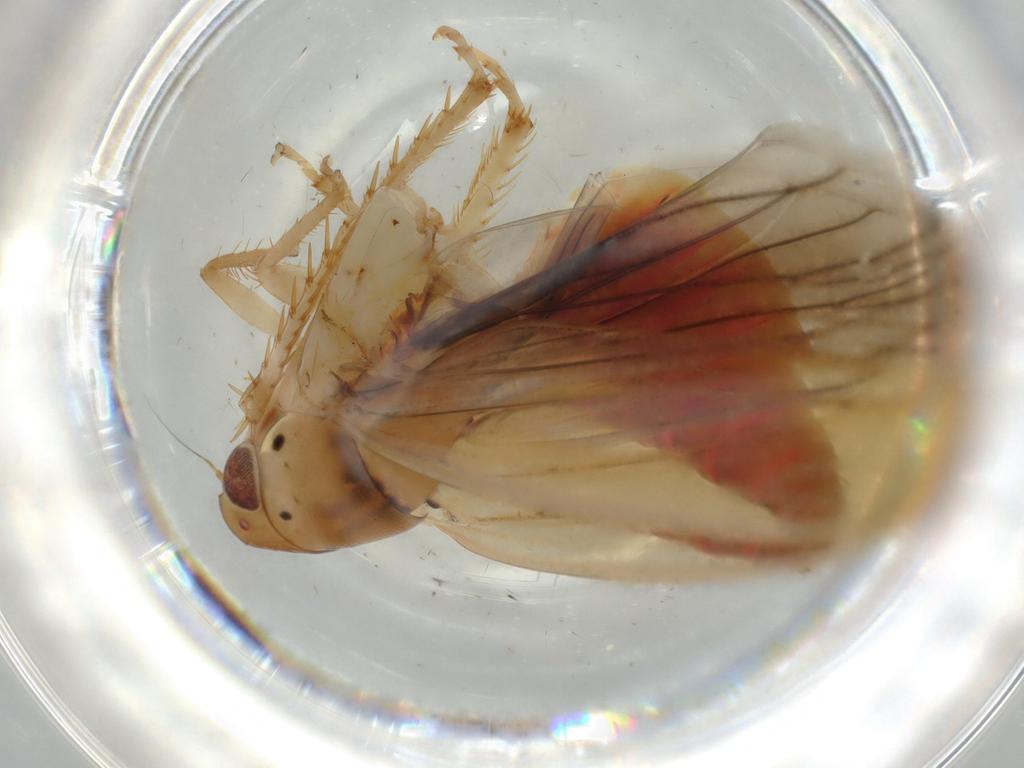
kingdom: Animalia
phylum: Arthropoda
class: Insecta
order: Hemiptera
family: Cicadellidae
